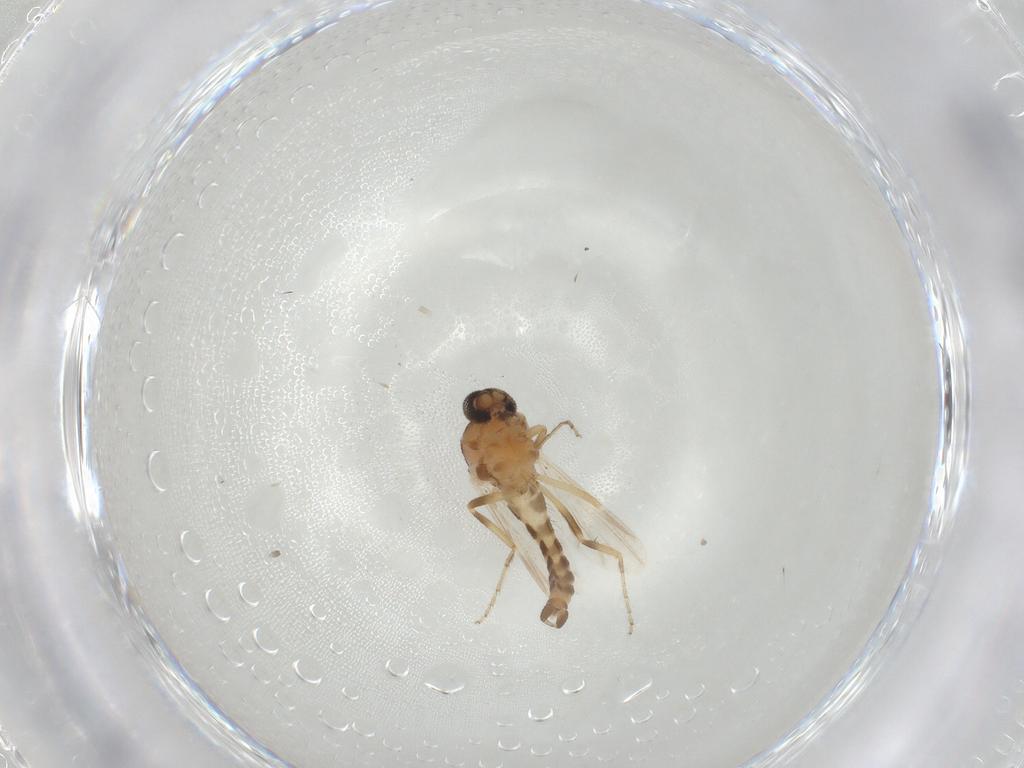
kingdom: Animalia
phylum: Arthropoda
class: Insecta
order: Diptera
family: Ceratopogonidae
